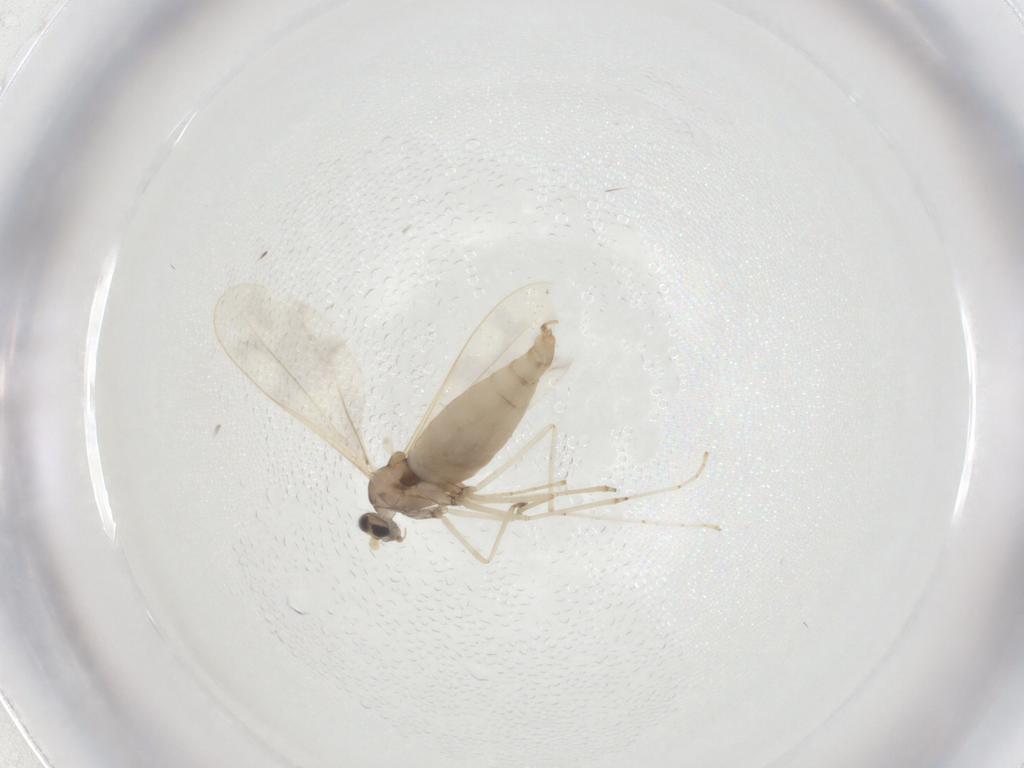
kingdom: Animalia
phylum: Arthropoda
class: Insecta
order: Diptera
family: Cecidomyiidae
